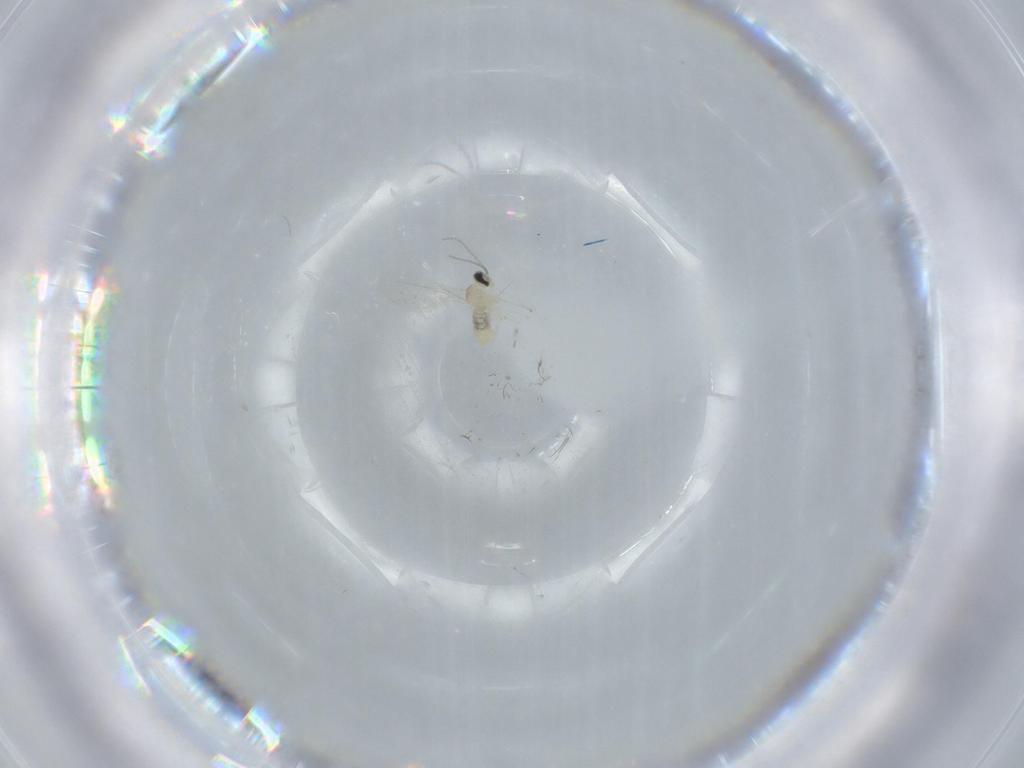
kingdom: Animalia
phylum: Arthropoda
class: Insecta
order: Diptera
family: Cecidomyiidae
